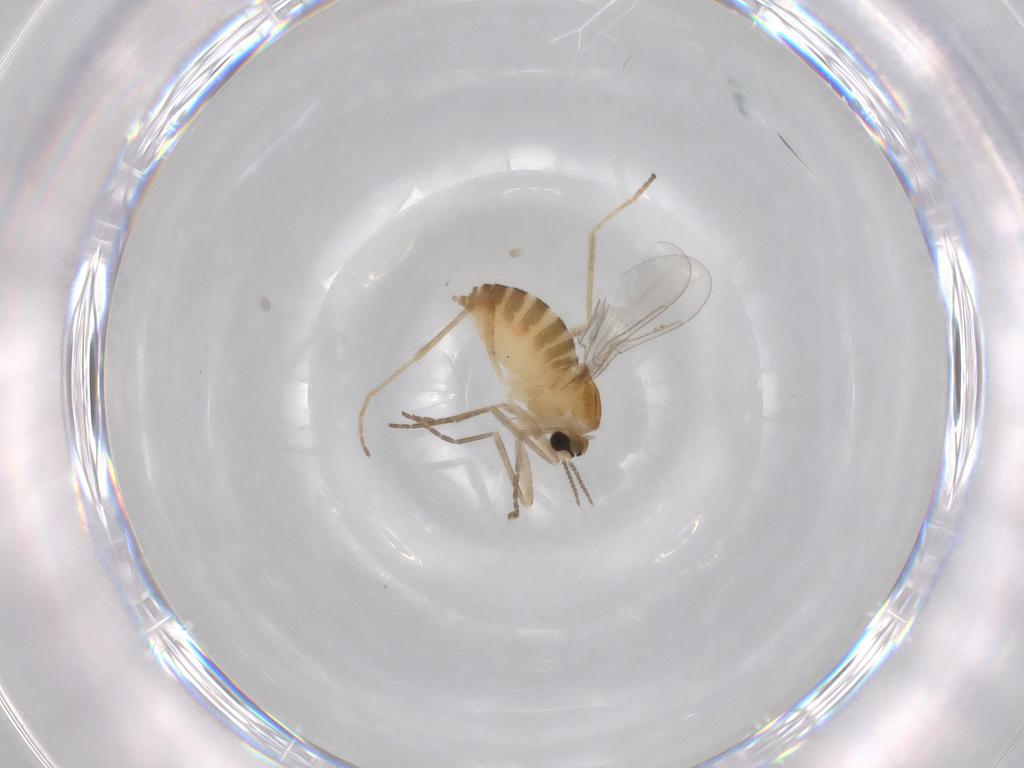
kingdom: Animalia
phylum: Arthropoda
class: Insecta
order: Diptera
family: Cecidomyiidae
